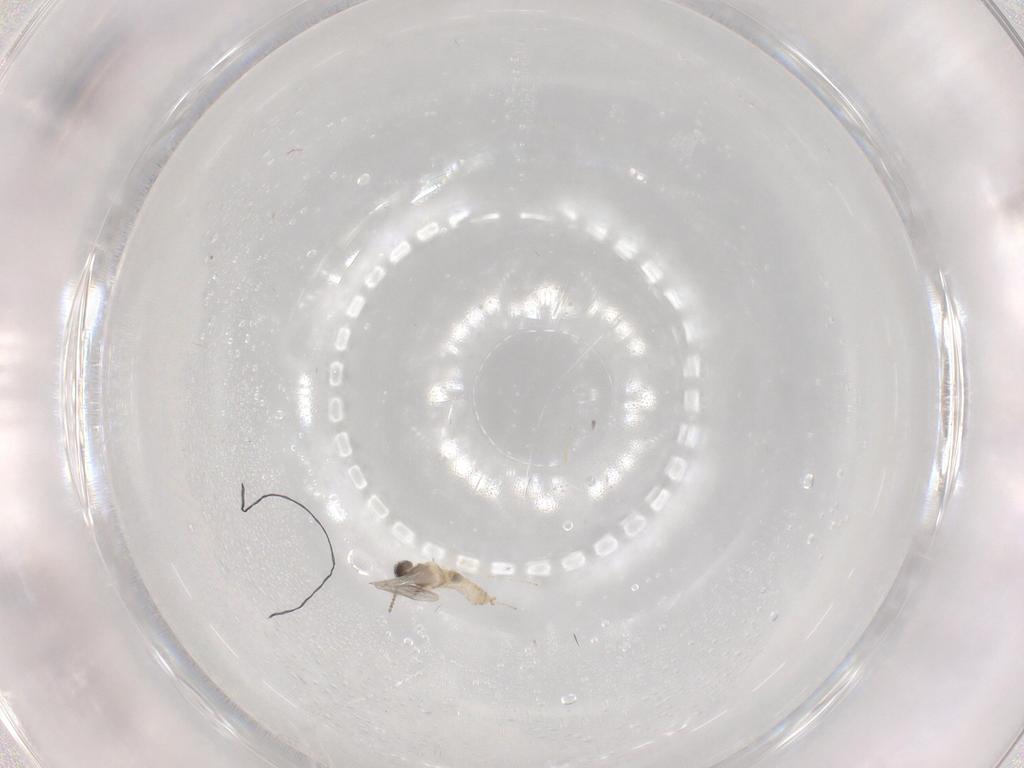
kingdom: Animalia
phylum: Arthropoda
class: Insecta
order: Diptera
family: Cecidomyiidae
